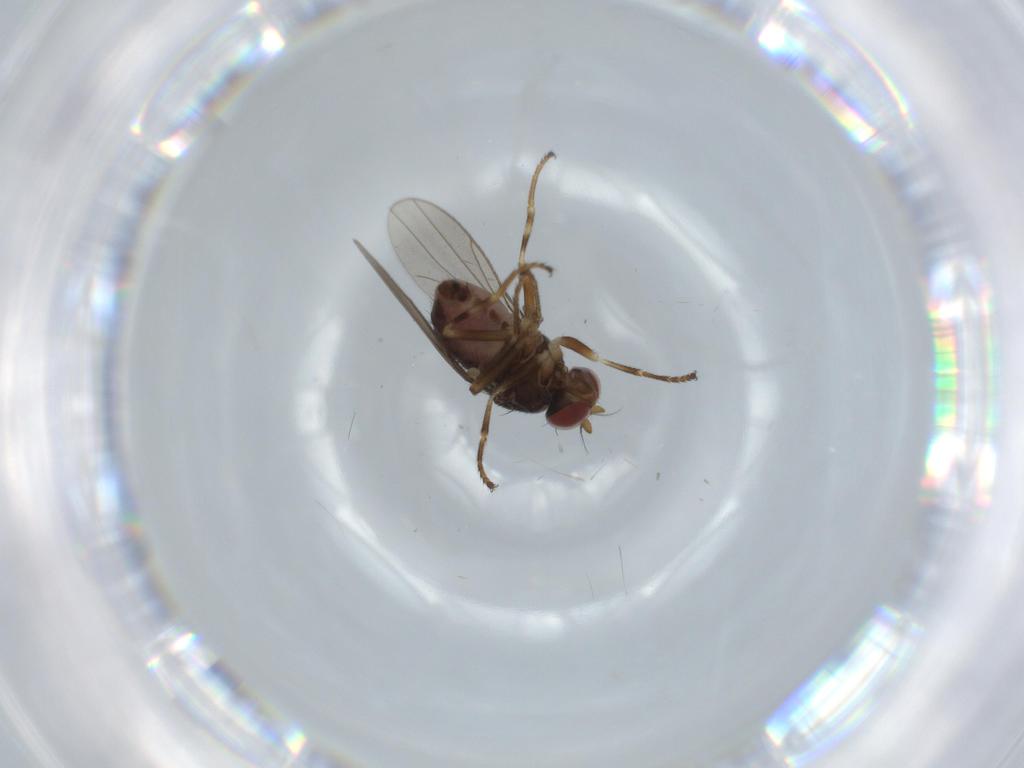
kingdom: Animalia
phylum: Arthropoda
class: Insecta
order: Diptera
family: Ephydridae
